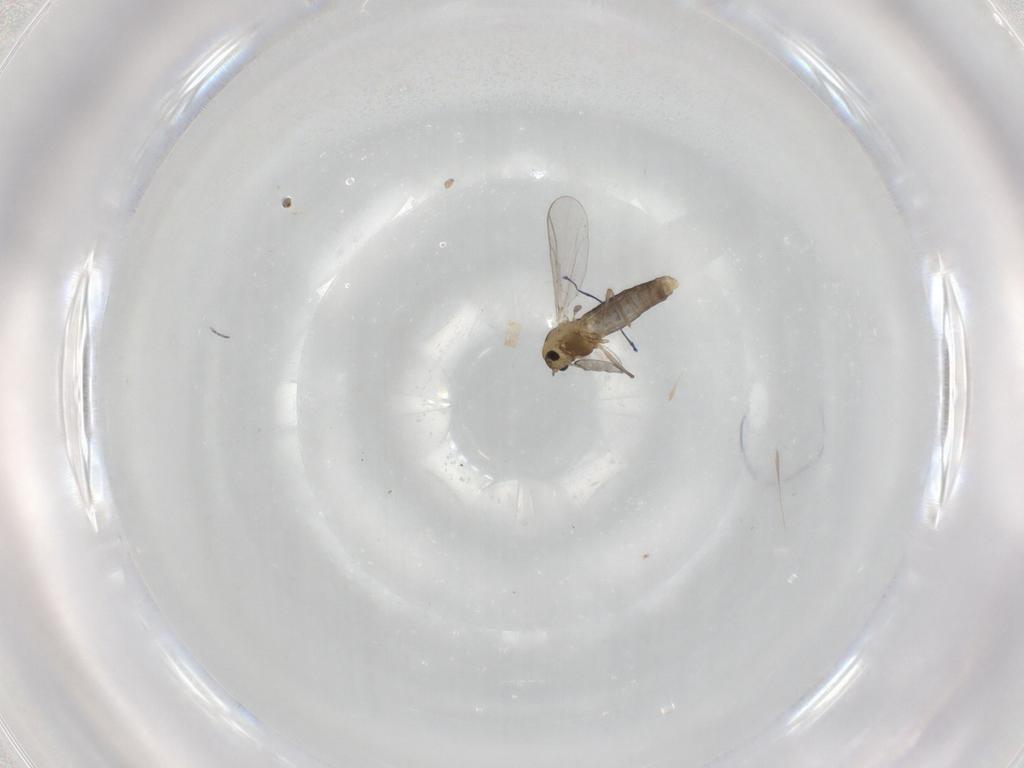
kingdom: Animalia
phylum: Arthropoda
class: Insecta
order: Diptera
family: Chironomidae
